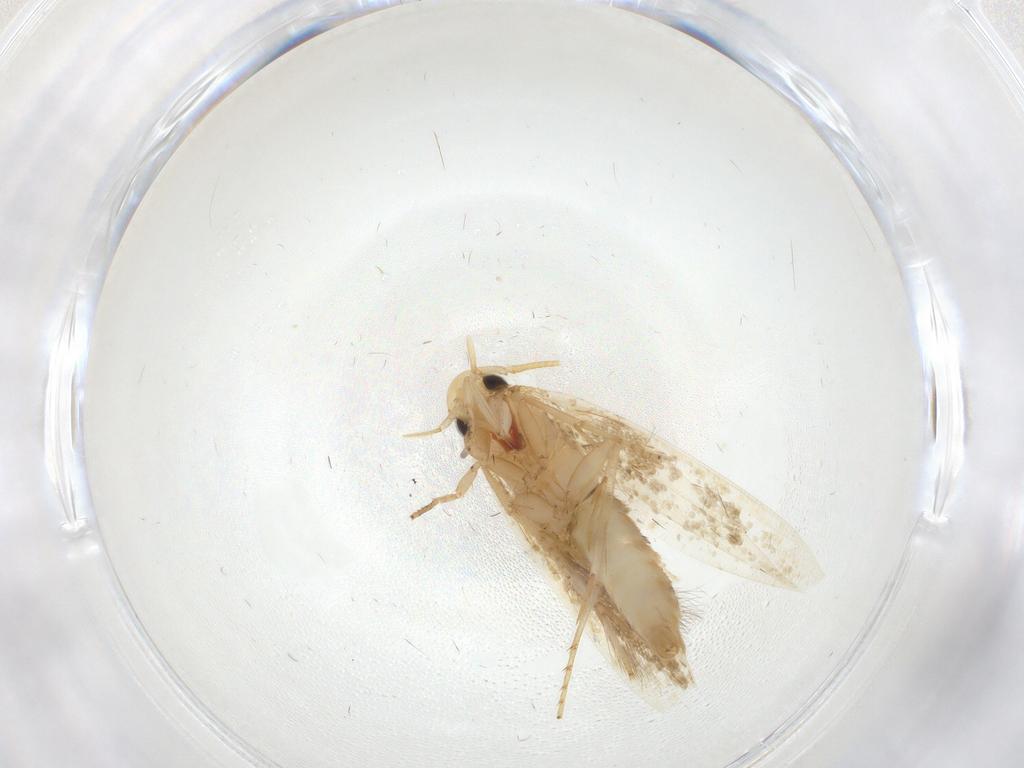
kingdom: Animalia
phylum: Arthropoda
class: Insecta
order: Lepidoptera
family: Tineidae
